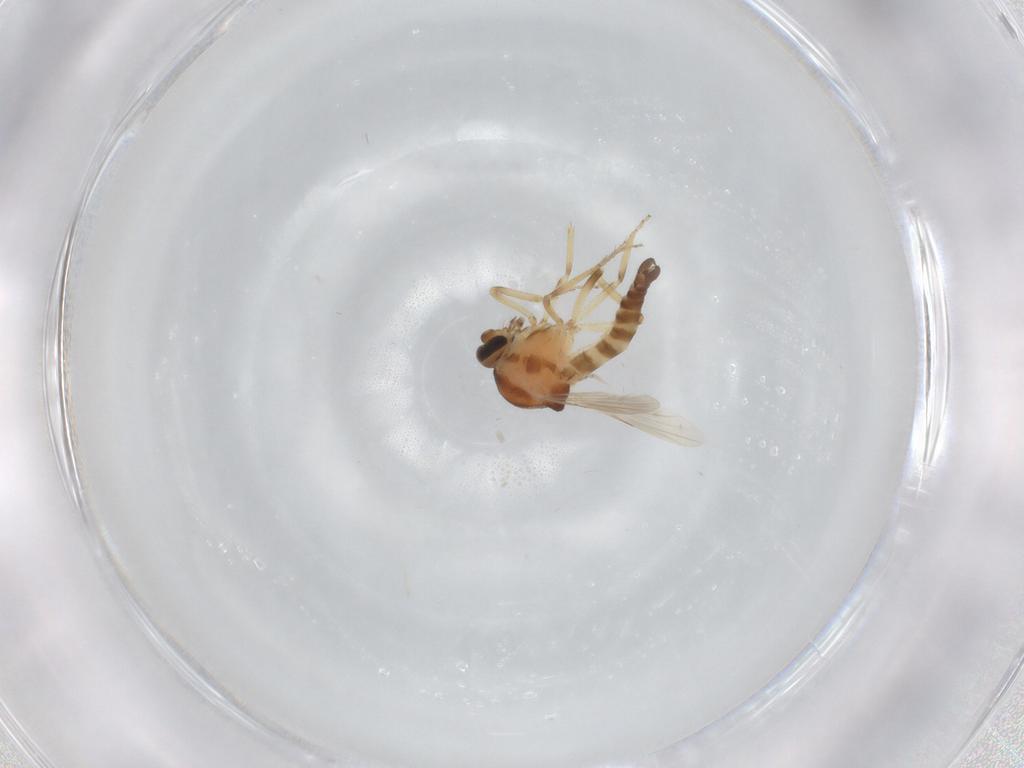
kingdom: Animalia
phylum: Arthropoda
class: Insecta
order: Diptera
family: Ceratopogonidae
